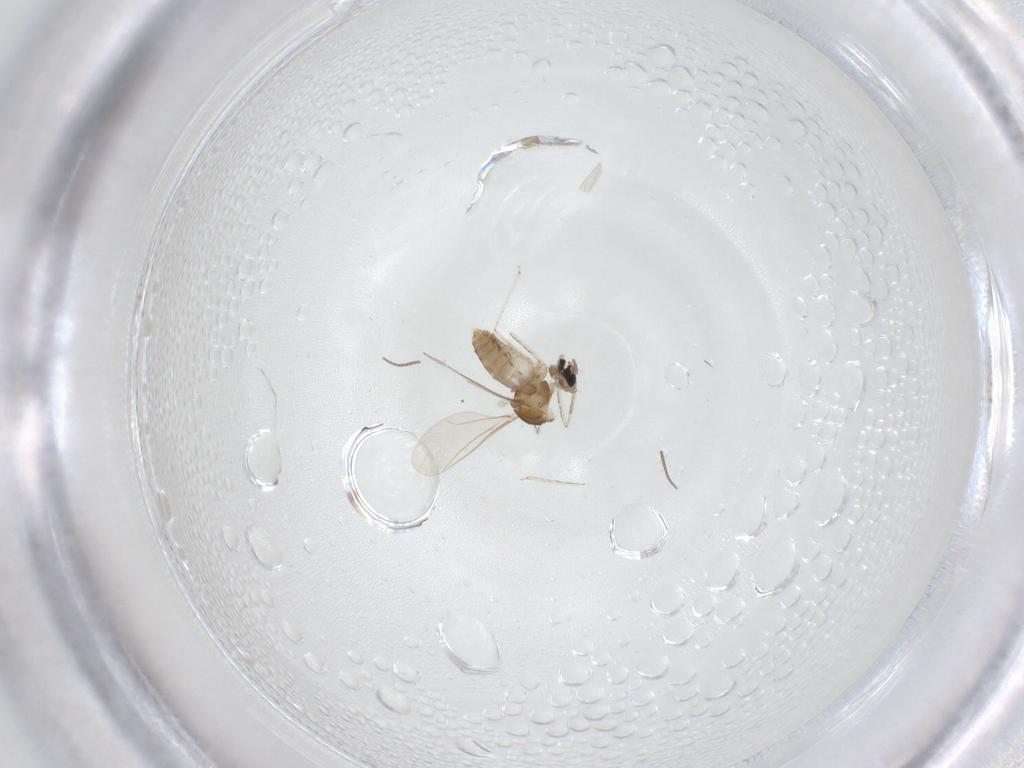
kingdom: Animalia
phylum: Arthropoda
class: Insecta
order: Diptera
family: Cecidomyiidae
